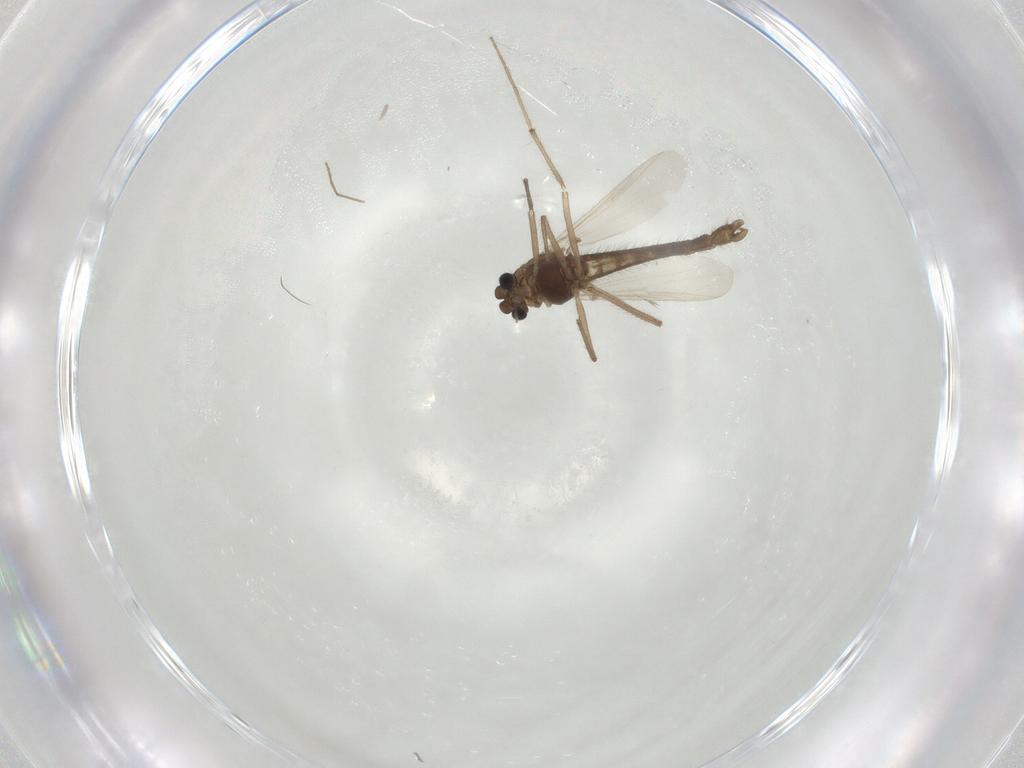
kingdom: Animalia
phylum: Arthropoda
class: Insecta
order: Diptera
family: Chironomidae
